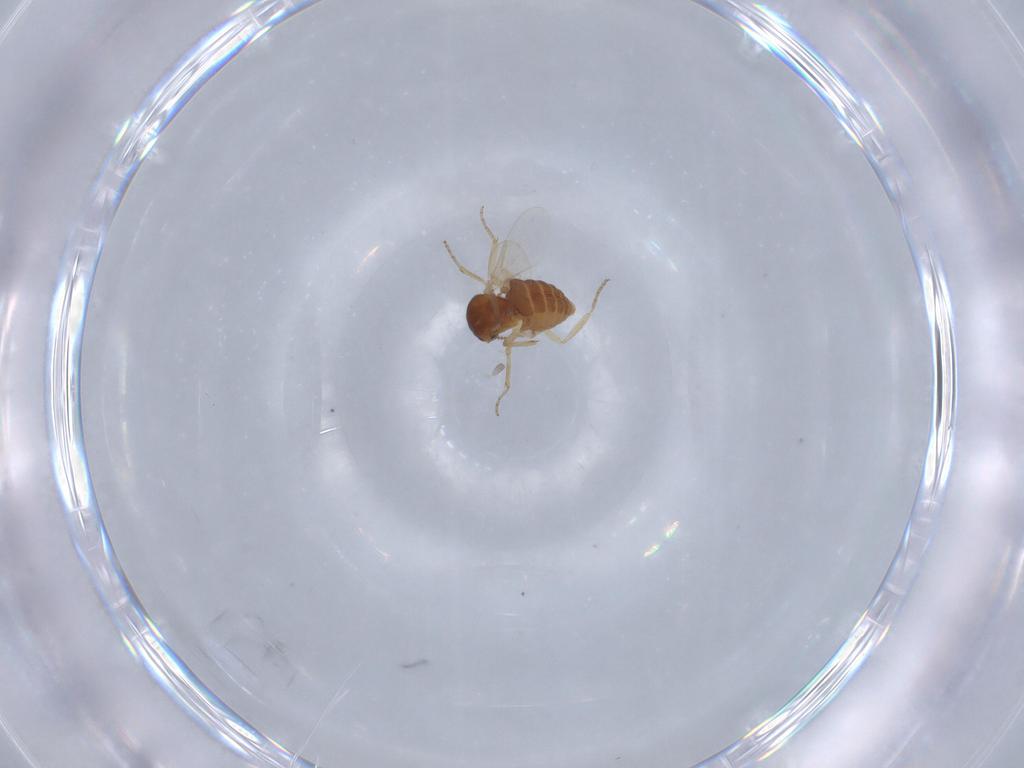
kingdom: Animalia
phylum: Arthropoda
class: Insecta
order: Diptera
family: Ceratopogonidae
